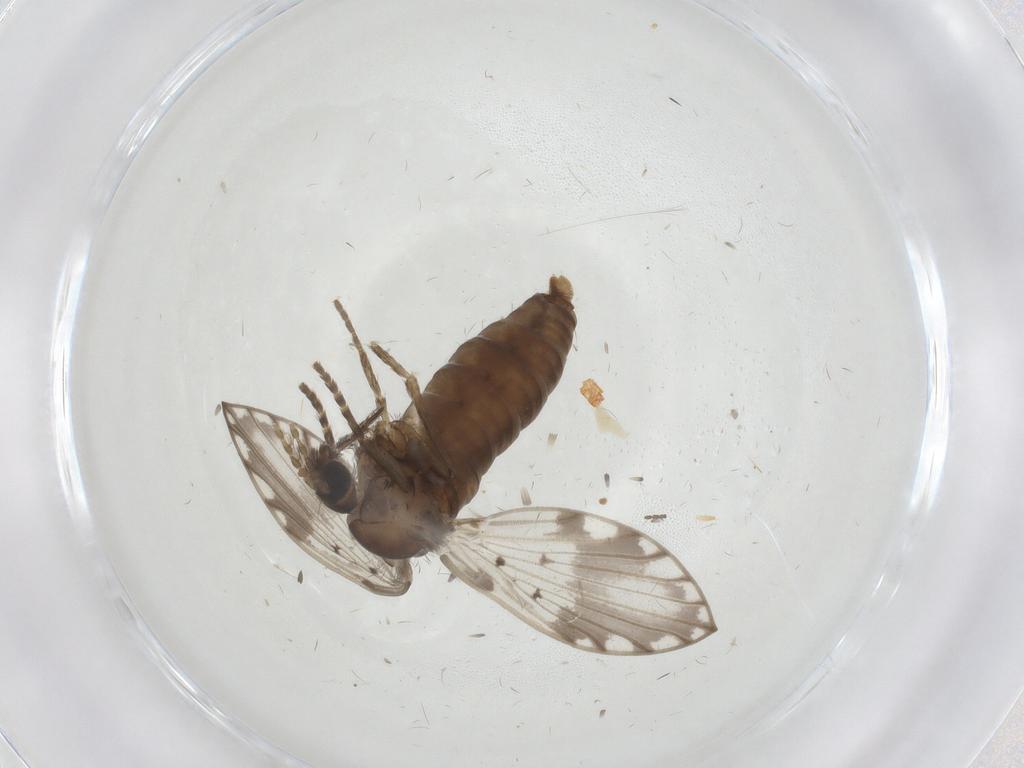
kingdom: Animalia
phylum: Arthropoda
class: Insecta
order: Diptera
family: Psychodidae
